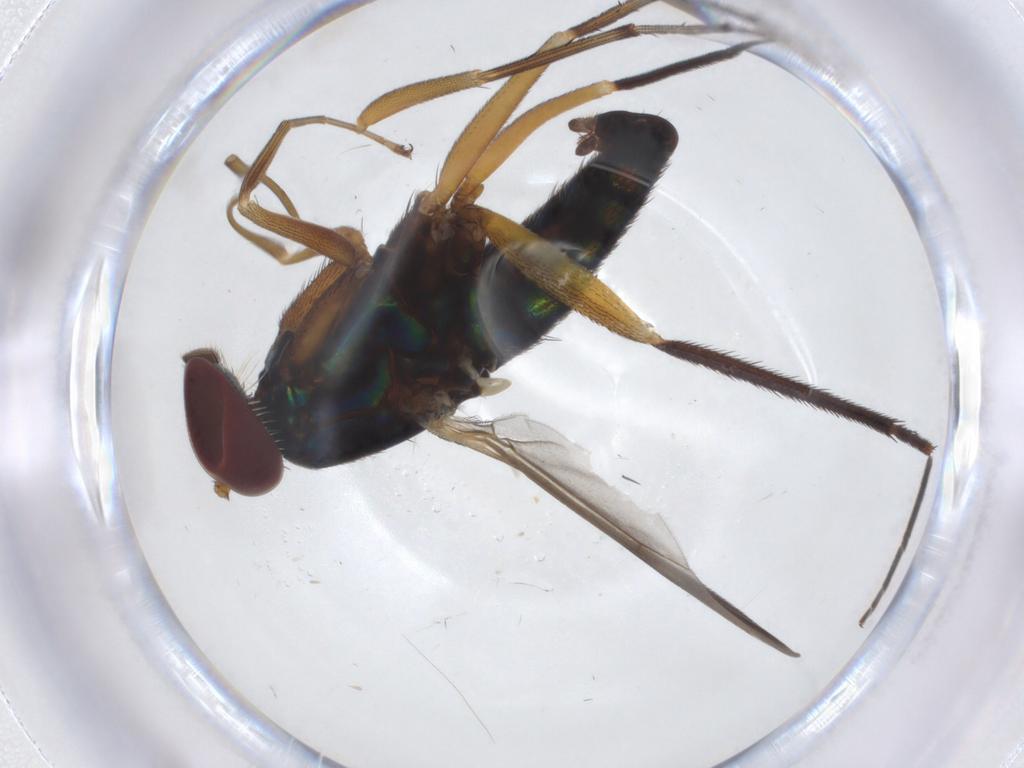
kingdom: Animalia
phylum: Arthropoda
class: Insecta
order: Diptera
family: Dolichopodidae
